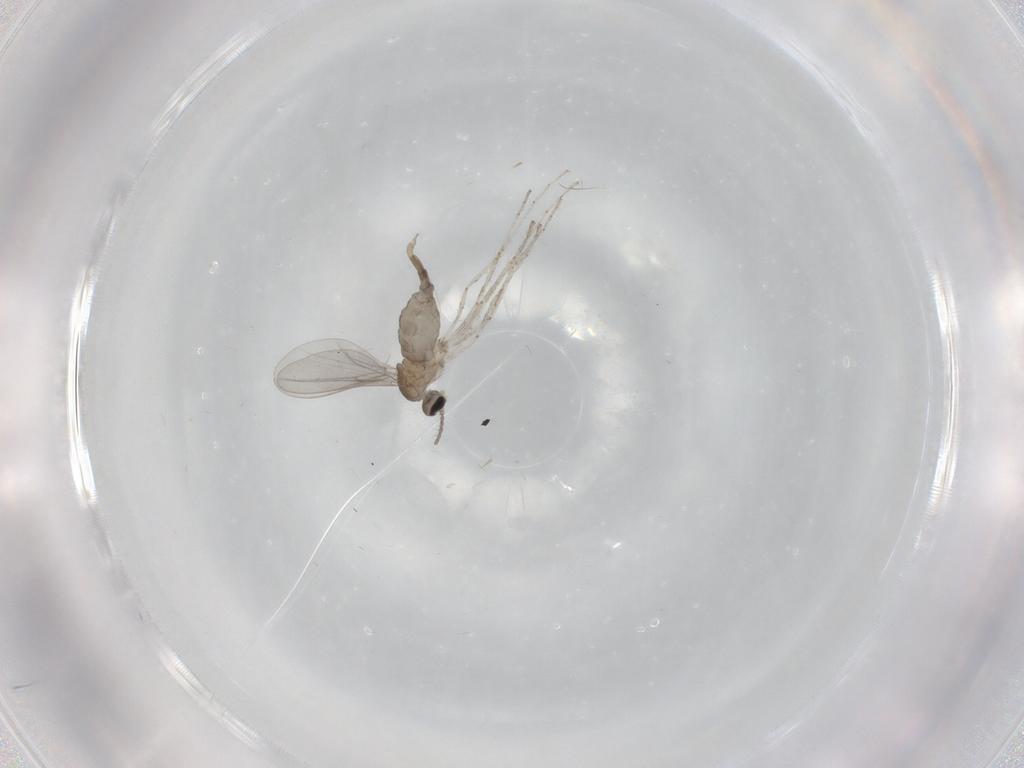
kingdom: Animalia
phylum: Arthropoda
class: Insecta
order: Diptera
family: Cecidomyiidae
